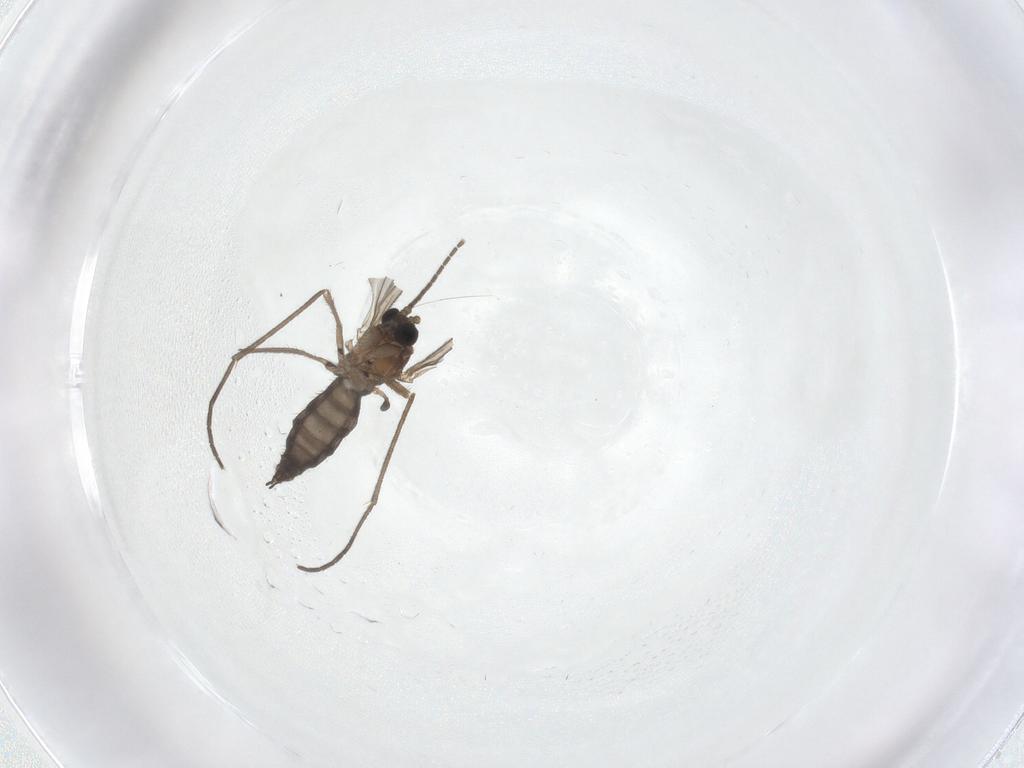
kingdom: Animalia
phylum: Arthropoda
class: Insecta
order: Diptera
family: Sciaridae
